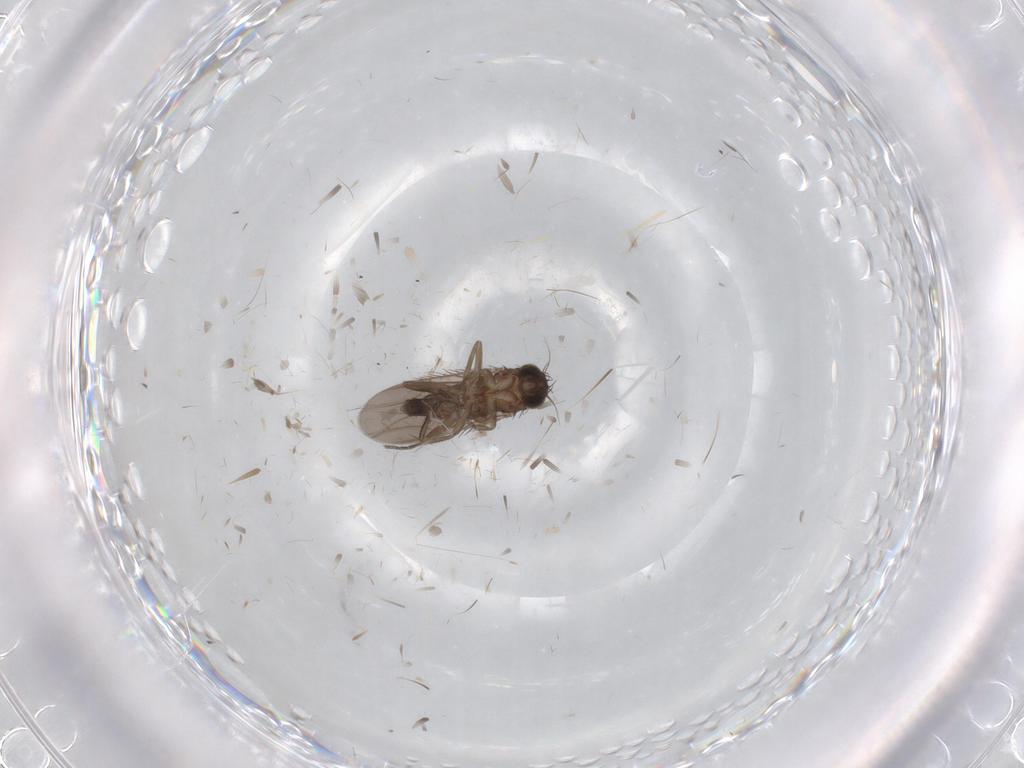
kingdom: Animalia
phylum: Arthropoda
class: Insecta
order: Diptera
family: Phoridae
